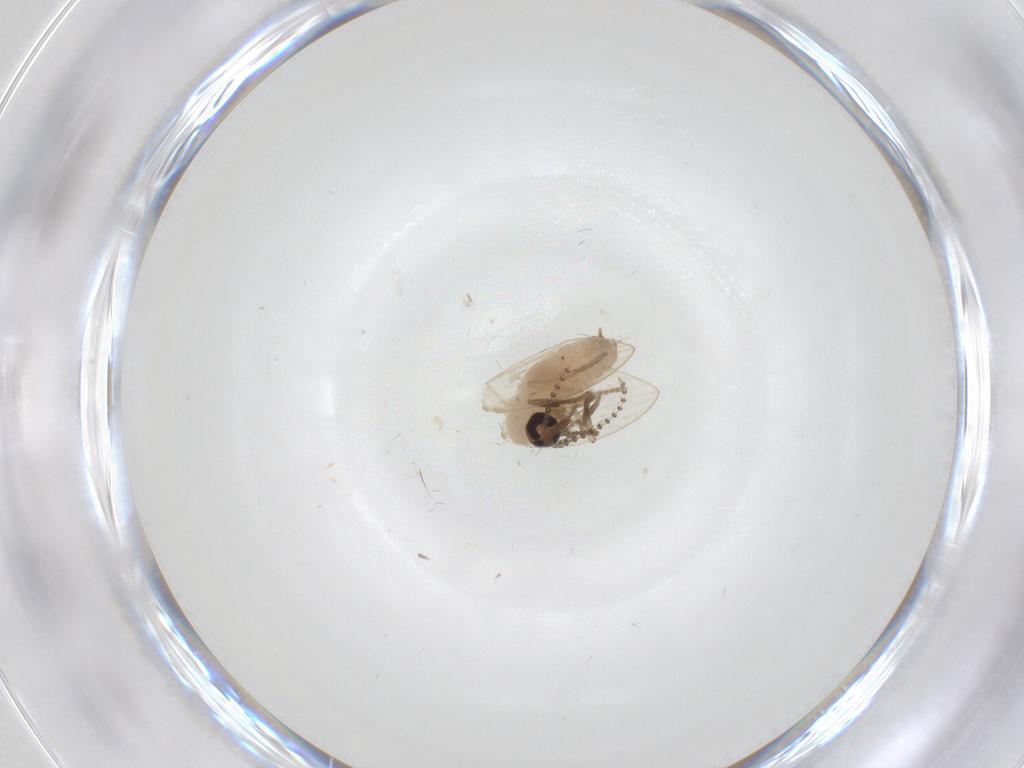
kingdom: Animalia
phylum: Arthropoda
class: Insecta
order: Diptera
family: Psychodidae
